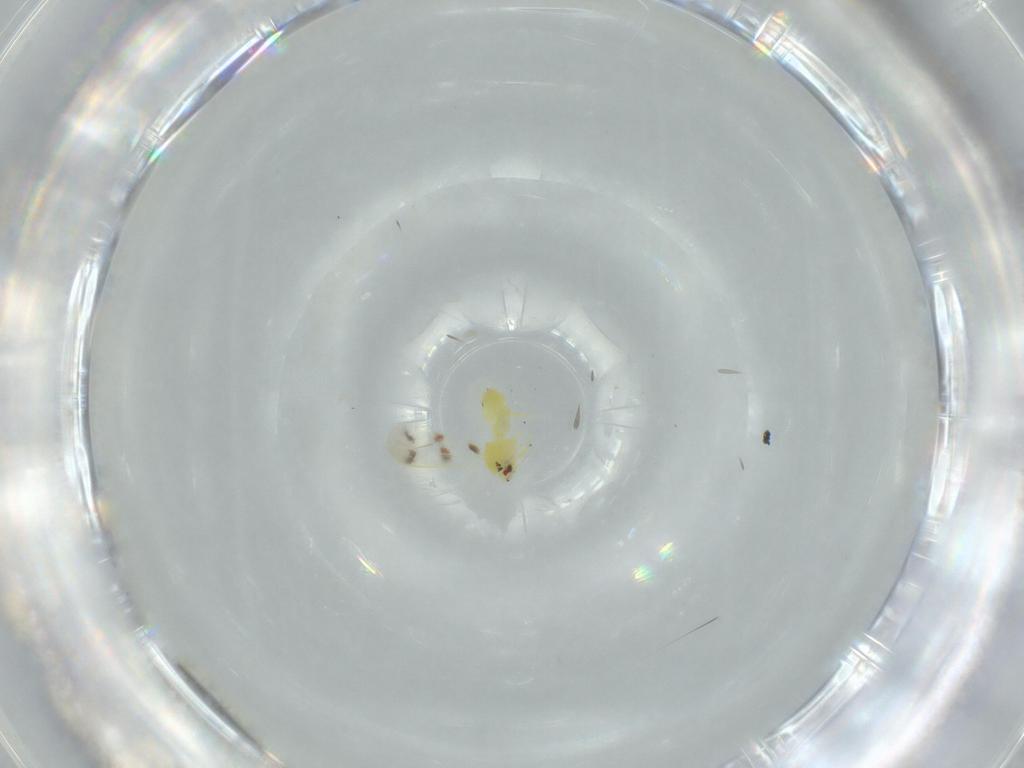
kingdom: Animalia
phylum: Arthropoda
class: Insecta
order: Hemiptera
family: Aleyrodidae
